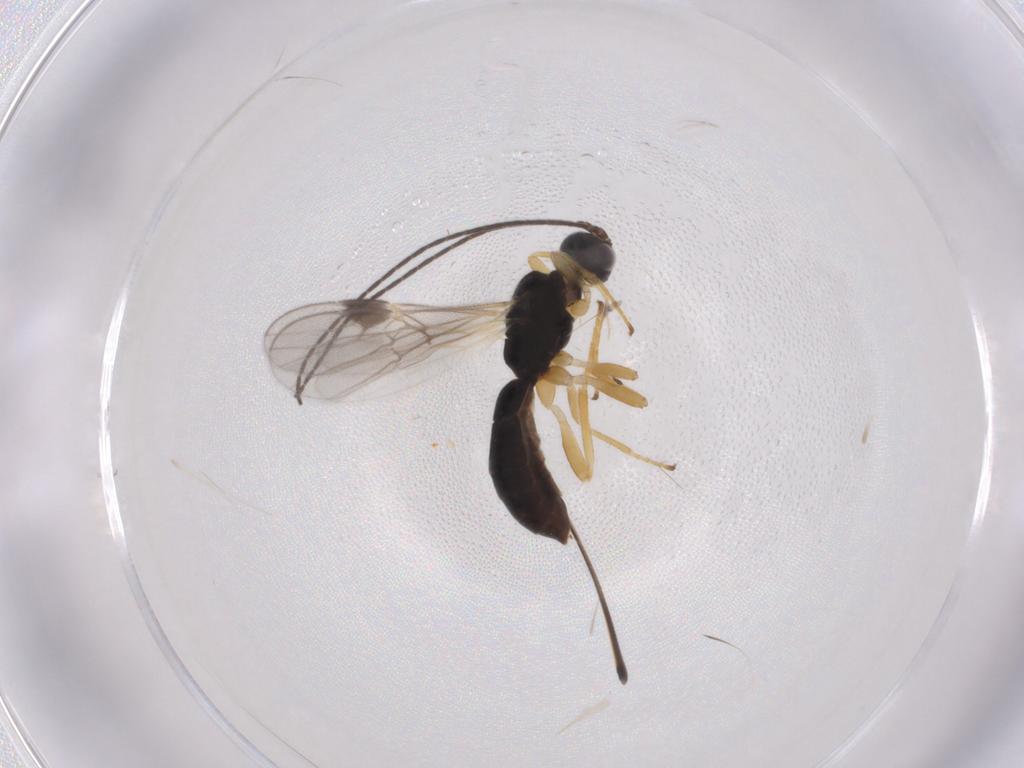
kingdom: Animalia
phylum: Arthropoda
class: Insecta
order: Hymenoptera
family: Braconidae
